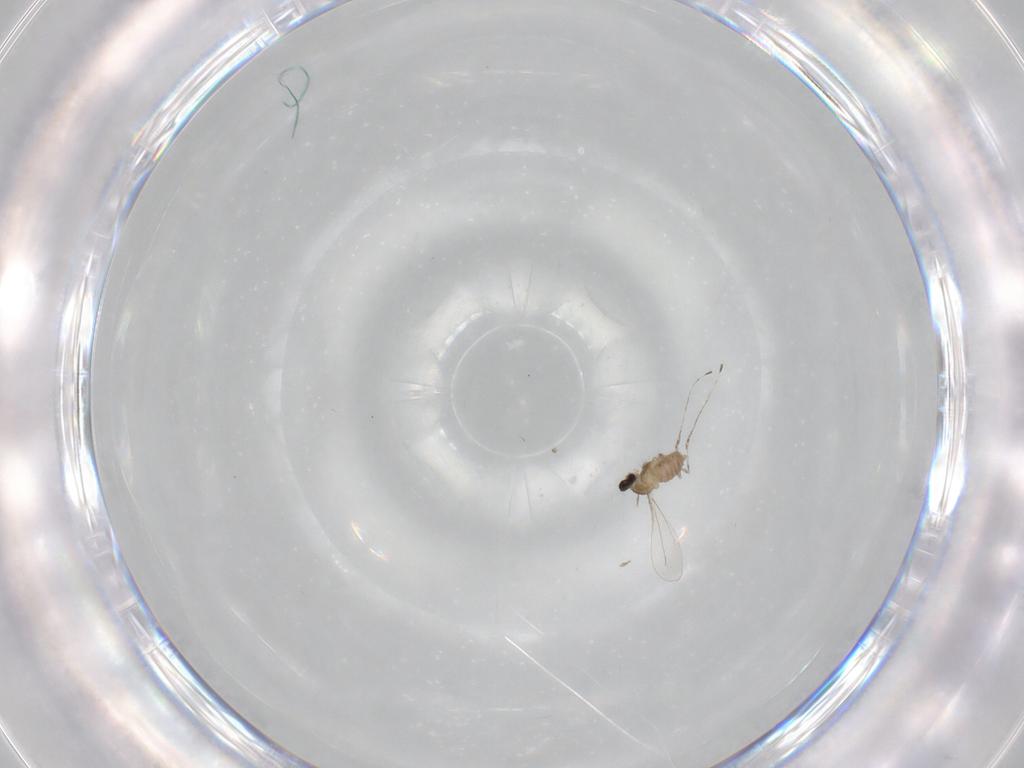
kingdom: Animalia
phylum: Arthropoda
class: Insecta
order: Diptera
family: Cecidomyiidae
